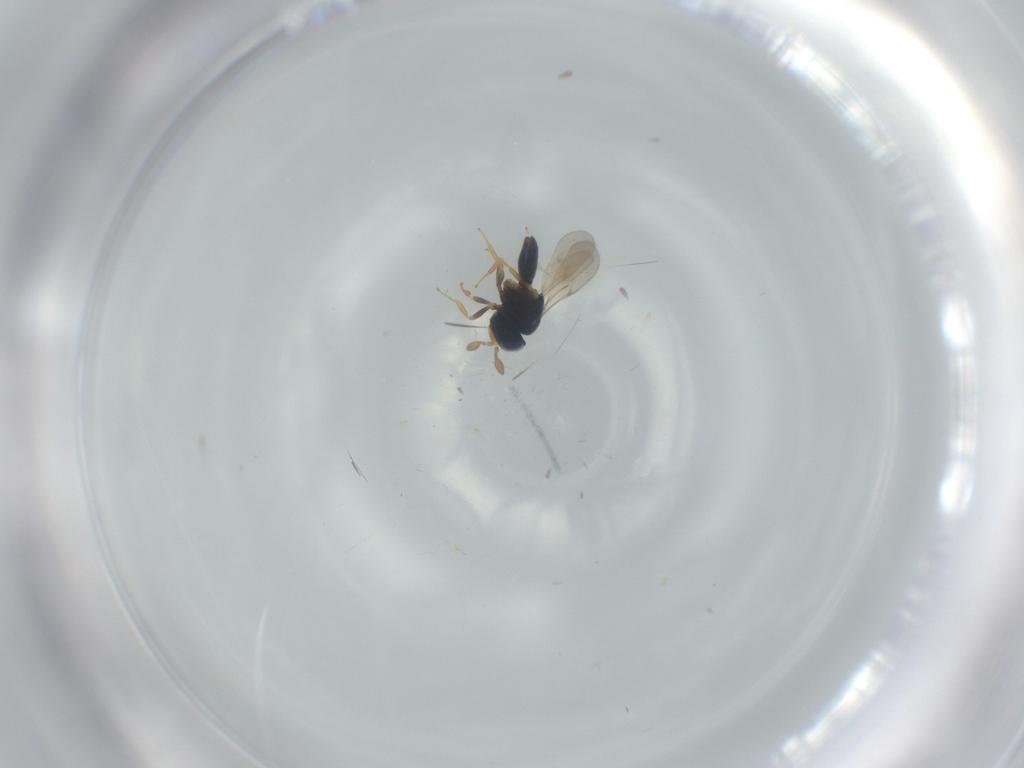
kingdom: Animalia
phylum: Arthropoda
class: Insecta
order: Hymenoptera
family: Scelionidae
